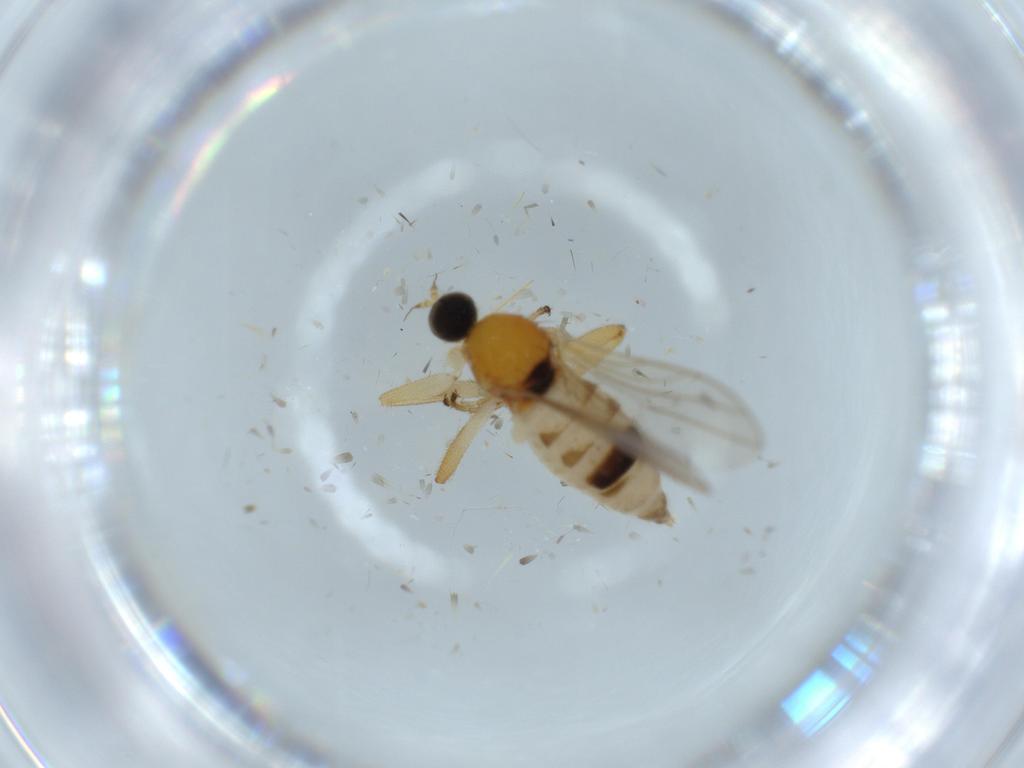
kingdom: Animalia
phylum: Arthropoda
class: Insecta
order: Diptera
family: Hybotidae
